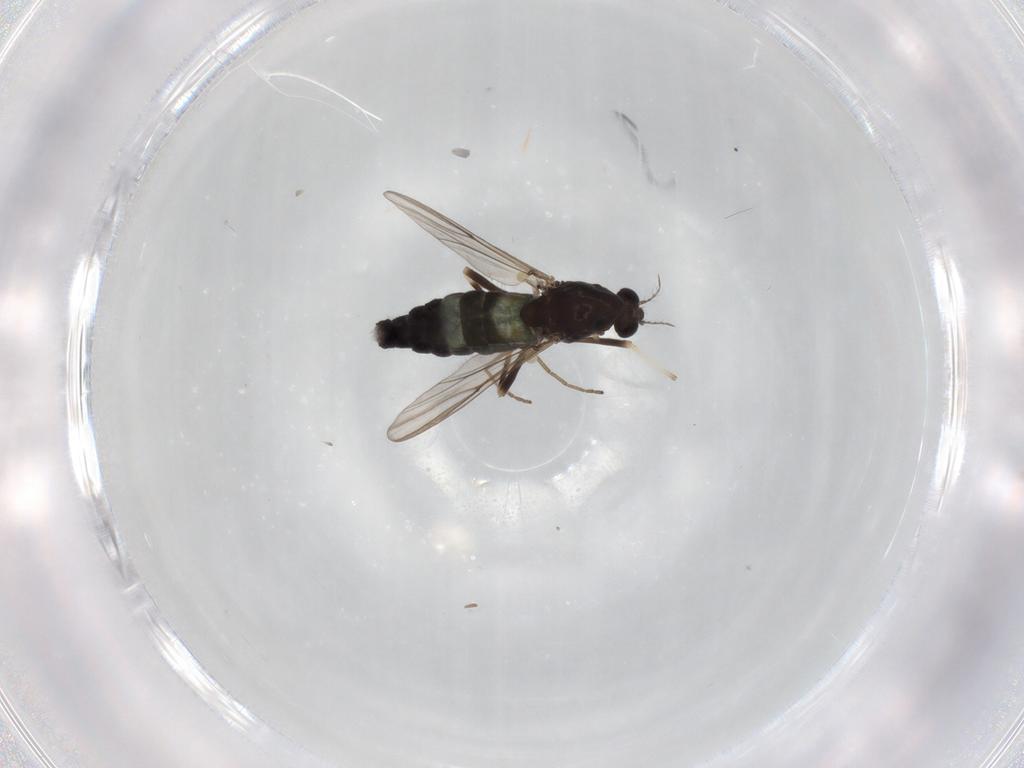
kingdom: Animalia
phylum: Arthropoda
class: Insecta
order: Diptera
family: Chironomidae
